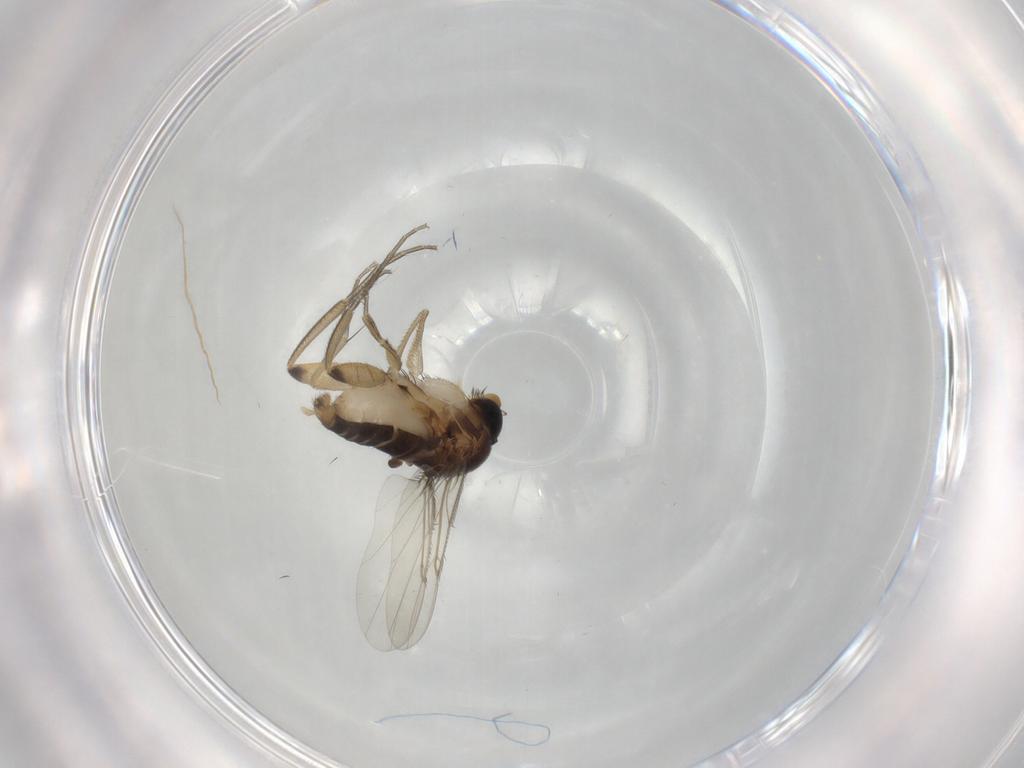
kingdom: Animalia
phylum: Arthropoda
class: Insecta
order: Diptera
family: Phoridae
